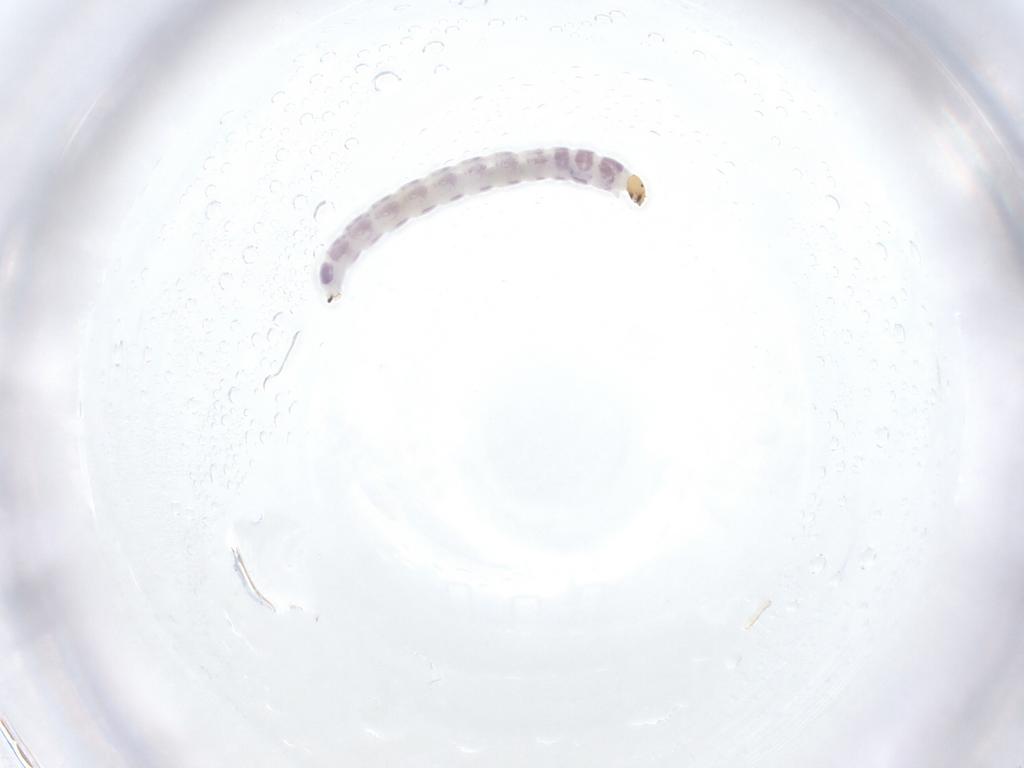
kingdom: Animalia
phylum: Arthropoda
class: Insecta
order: Diptera
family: Chironomidae
